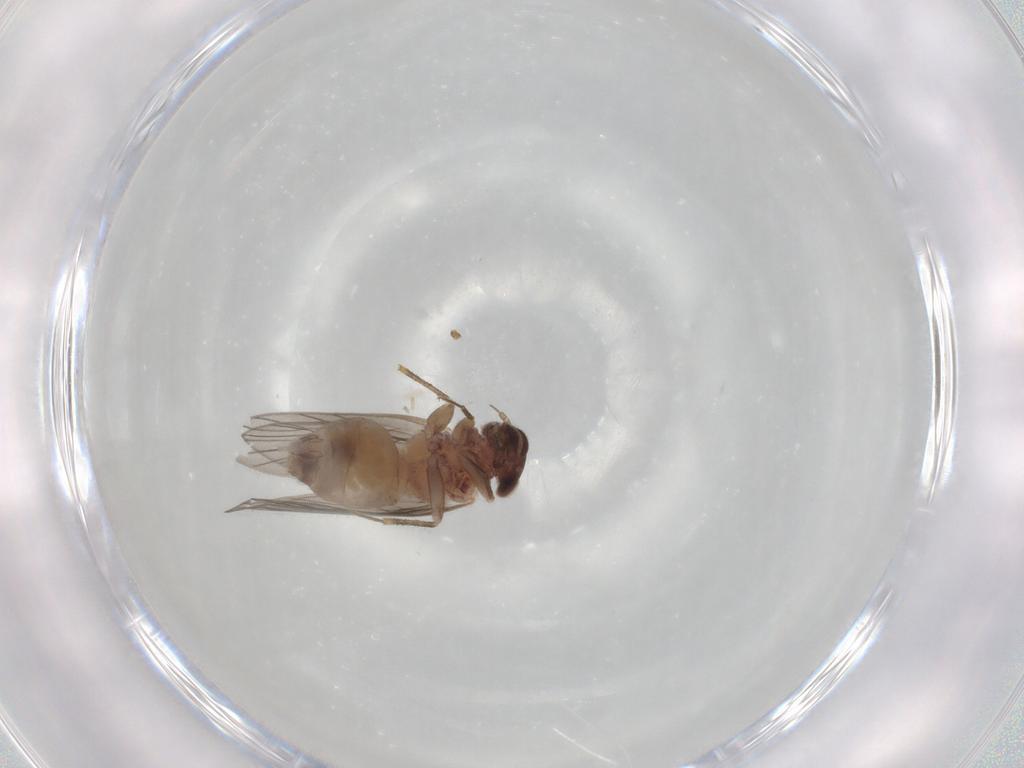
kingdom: Animalia
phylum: Arthropoda
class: Insecta
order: Psocodea
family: Lepidopsocidae
